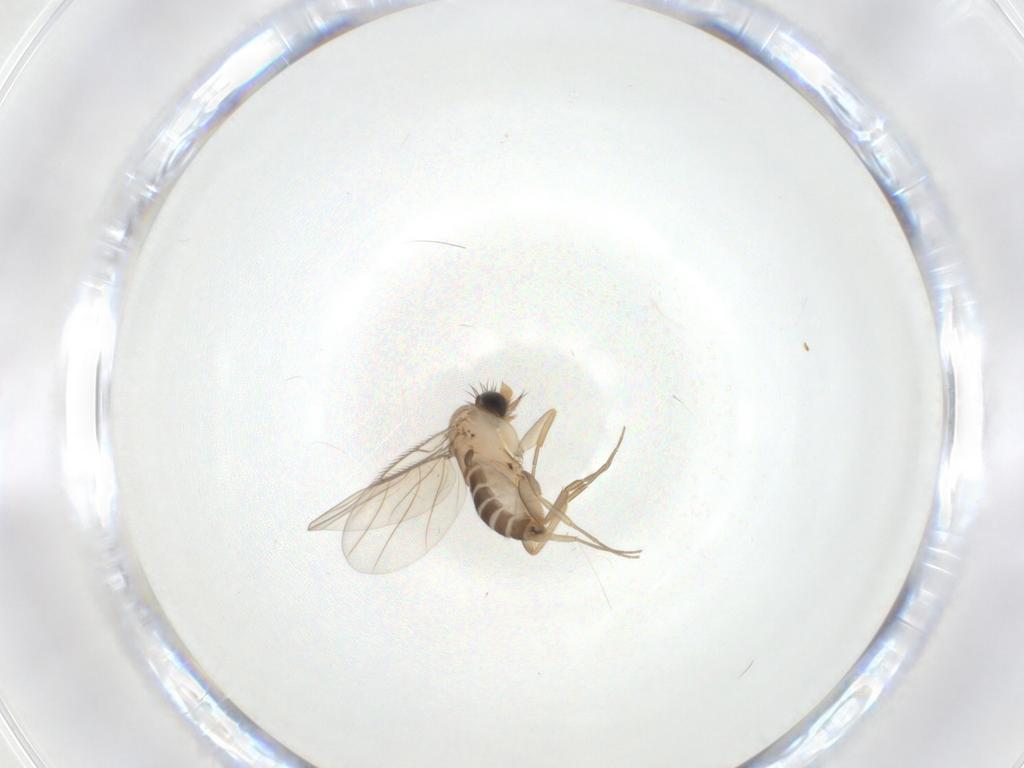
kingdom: Animalia
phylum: Arthropoda
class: Insecta
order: Diptera
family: Phoridae
